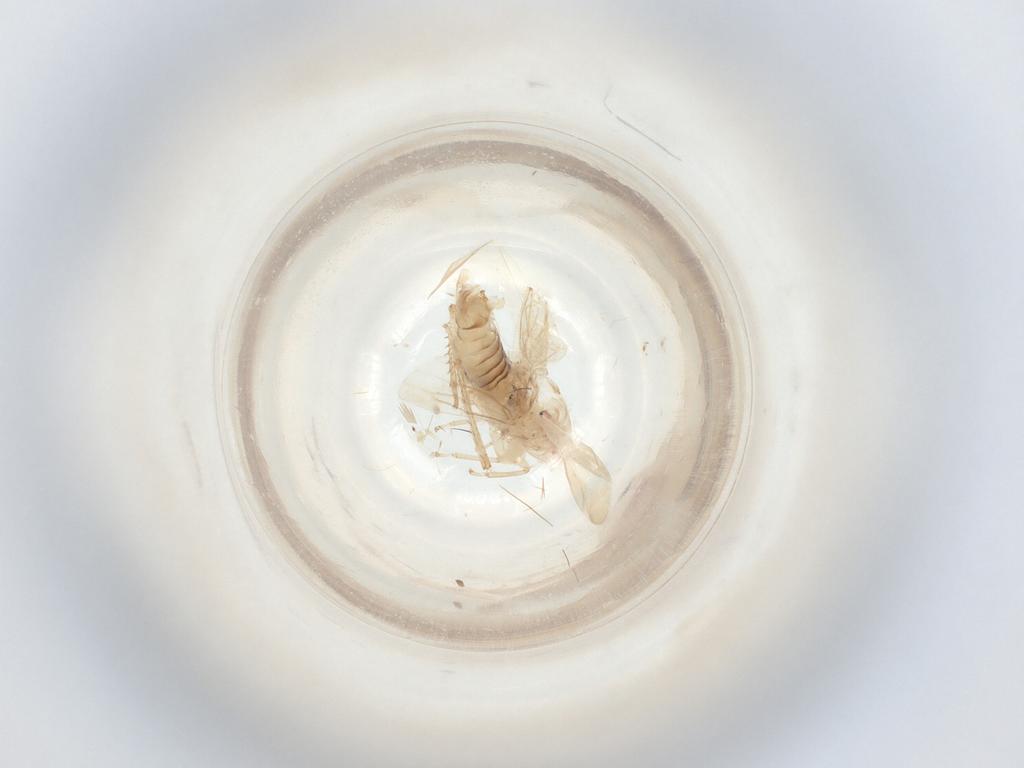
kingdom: Animalia
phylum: Arthropoda
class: Insecta
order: Hemiptera
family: Cicadellidae
